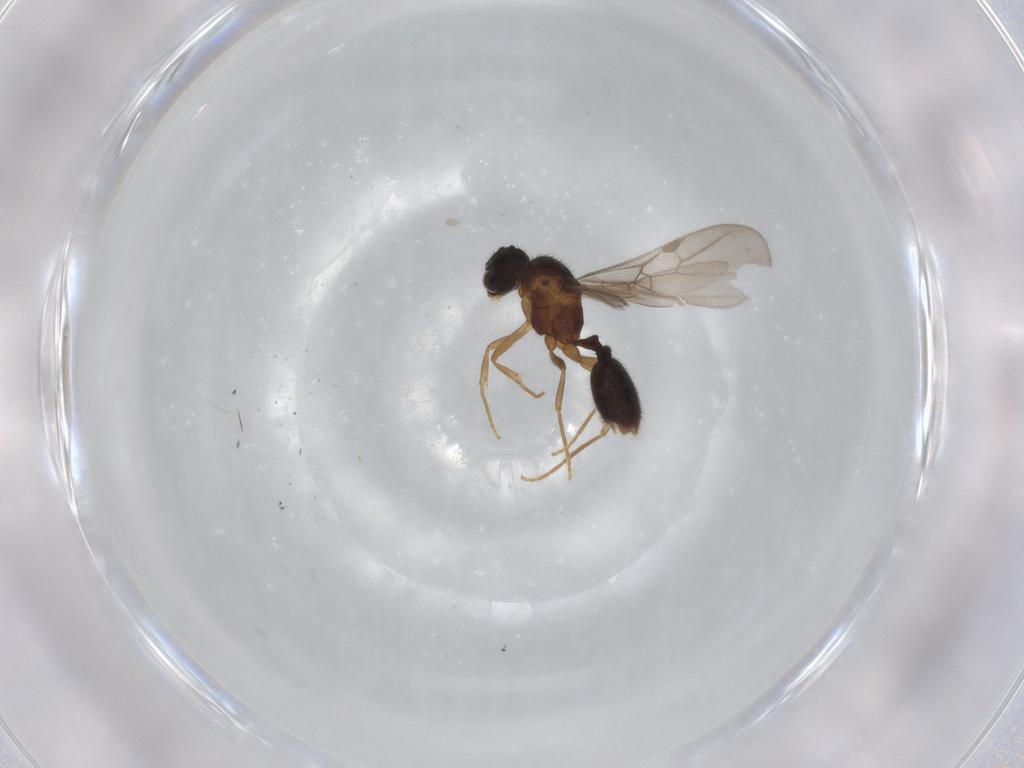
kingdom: Animalia
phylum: Arthropoda
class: Insecta
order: Hymenoptera
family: Formicidae
